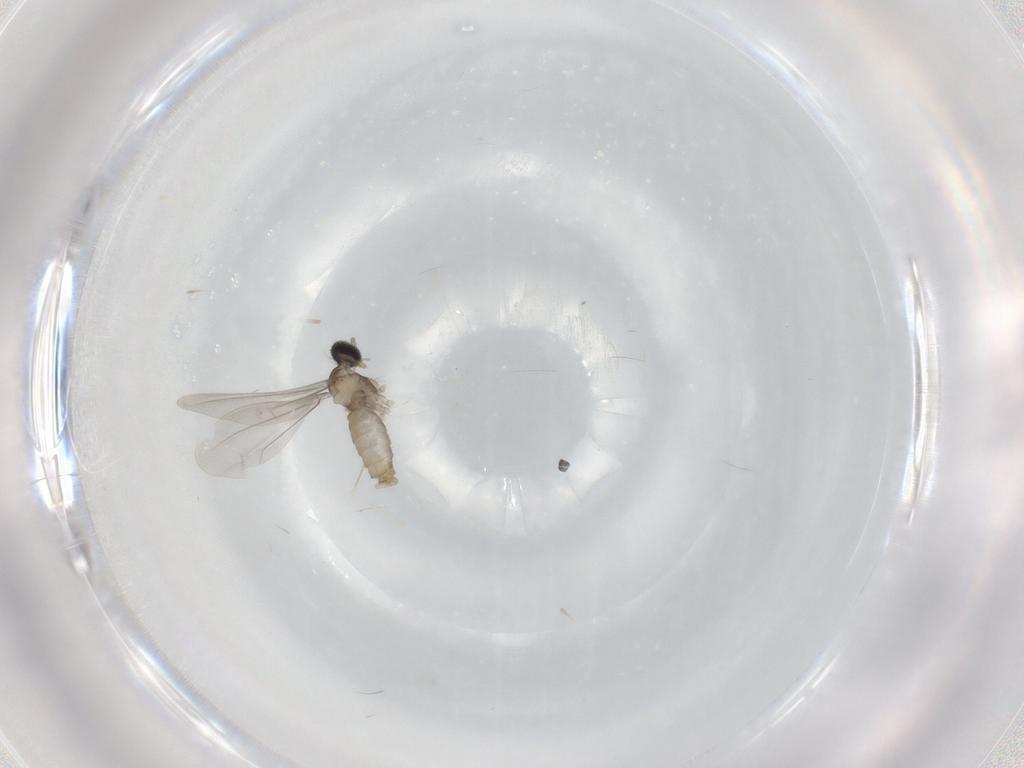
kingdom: Animalia
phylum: Arthropoda
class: Insecta
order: Diptera
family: Cecidomyiidae
